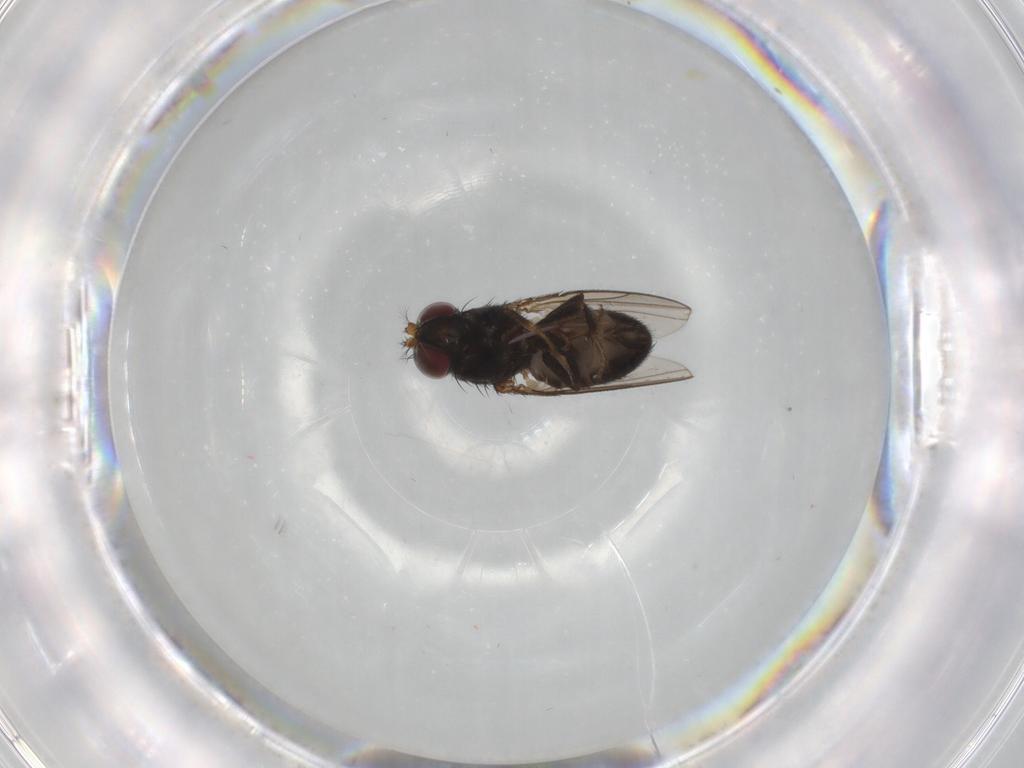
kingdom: Animalia
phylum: Arthropoda
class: Insecta
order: Diptera
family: Ephydridae
